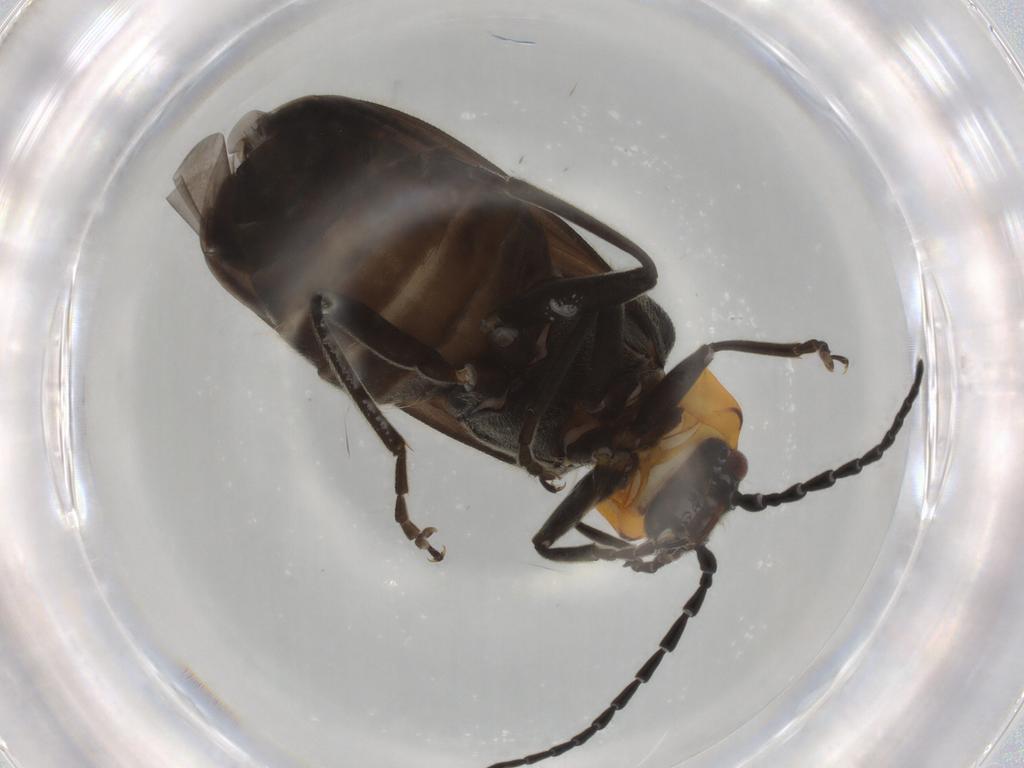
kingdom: Animalia
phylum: Arthropoda
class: Insecta
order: Coleoptera
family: Cantharidae
